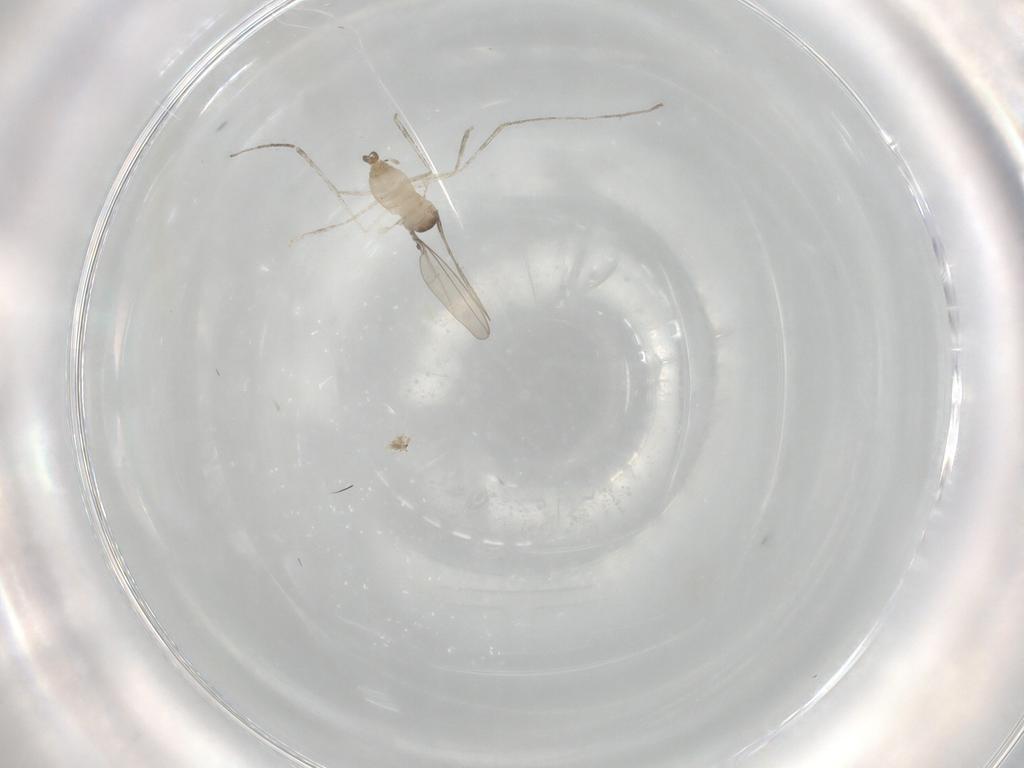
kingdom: Animalia
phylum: Arthropoda
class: Insecta
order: Diptera
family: Tabanidae
